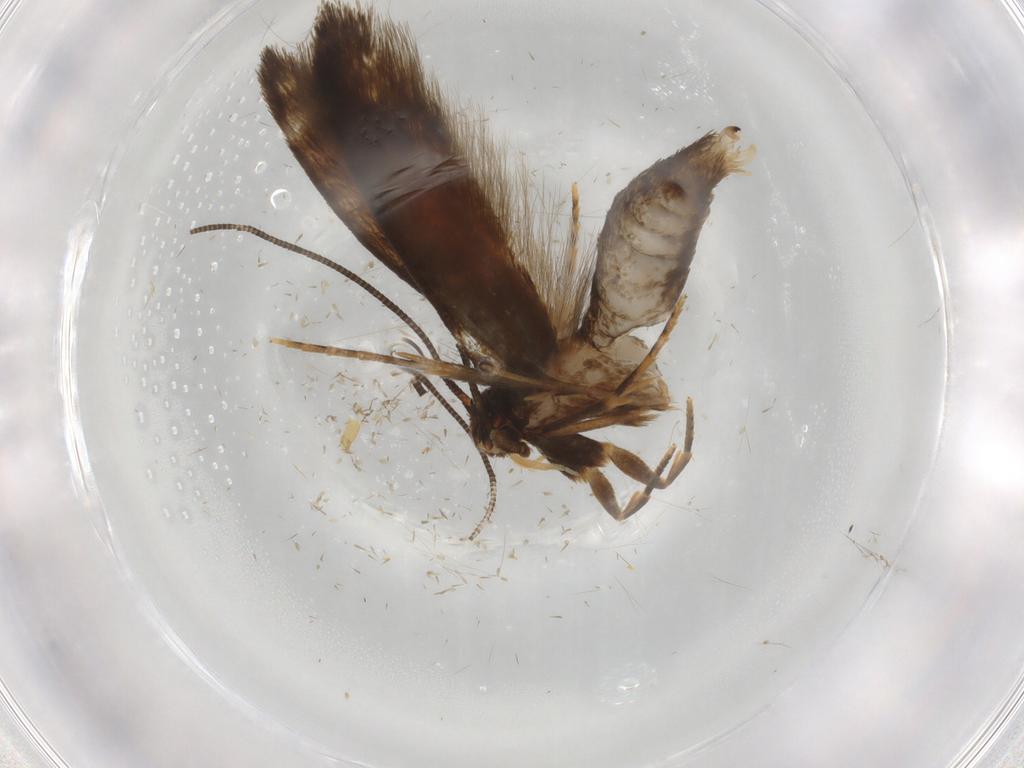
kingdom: Animalia
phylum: Arthropoda
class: Insecta
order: Lepidoptera
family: Tineidae
